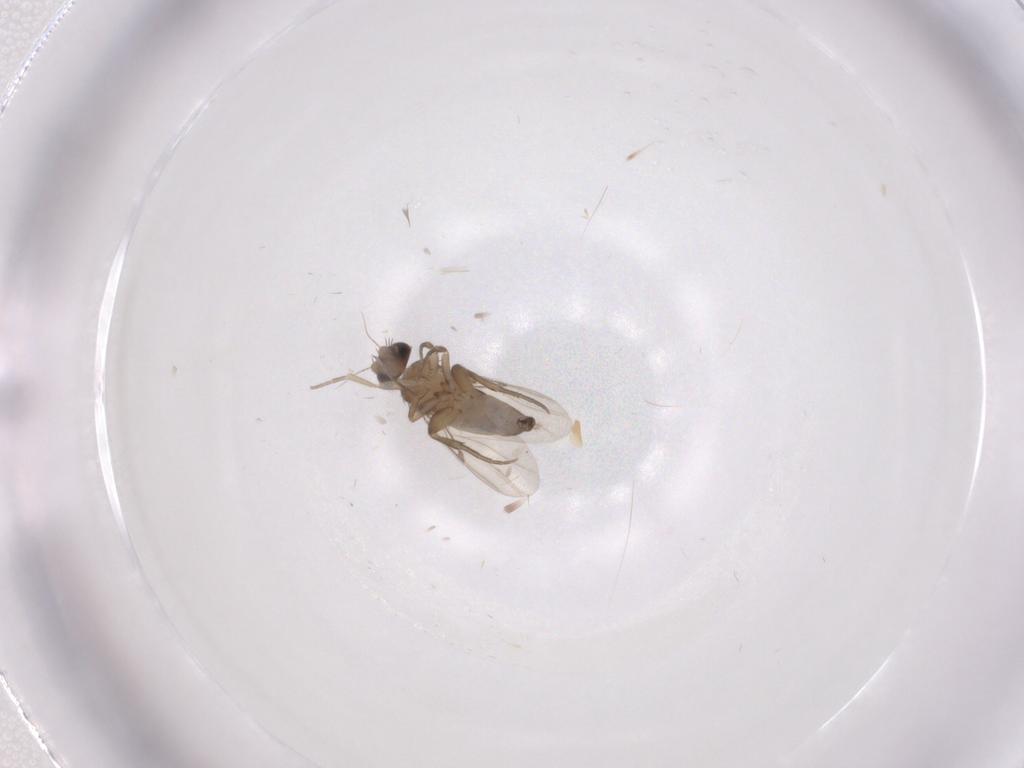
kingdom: Animalia
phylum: Arthropoda
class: Insecta
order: Diptera
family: Phoridae
